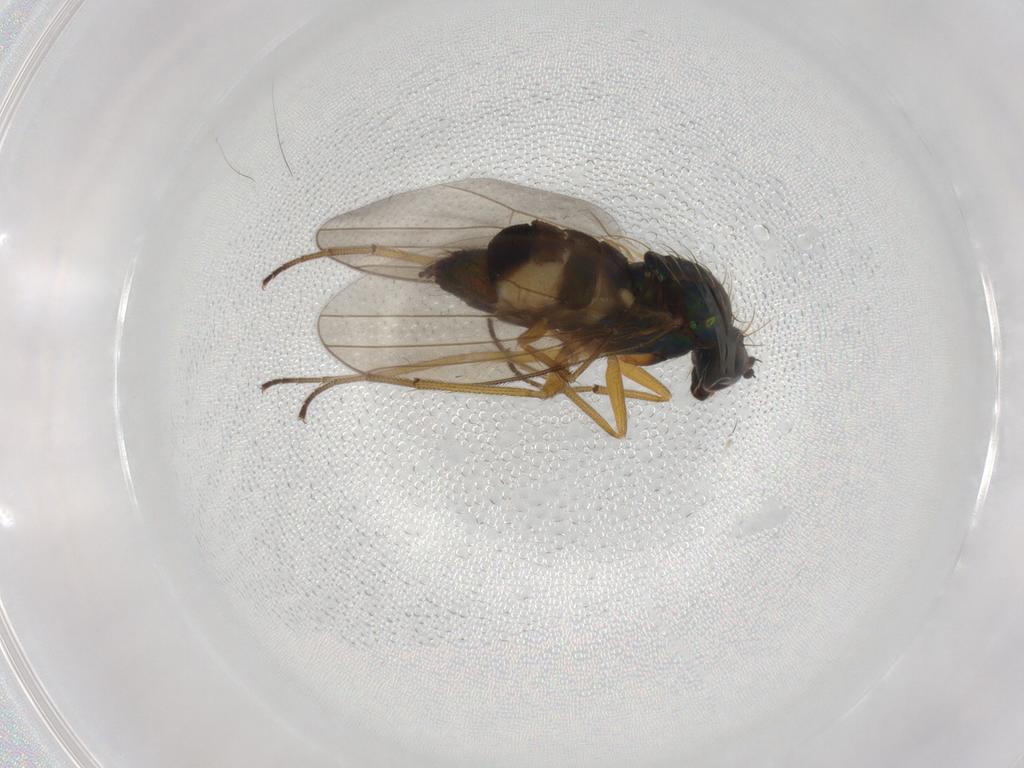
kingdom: Animalia
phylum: Arthropoda
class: Insecta
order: Diptera
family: Dolichopodidae
